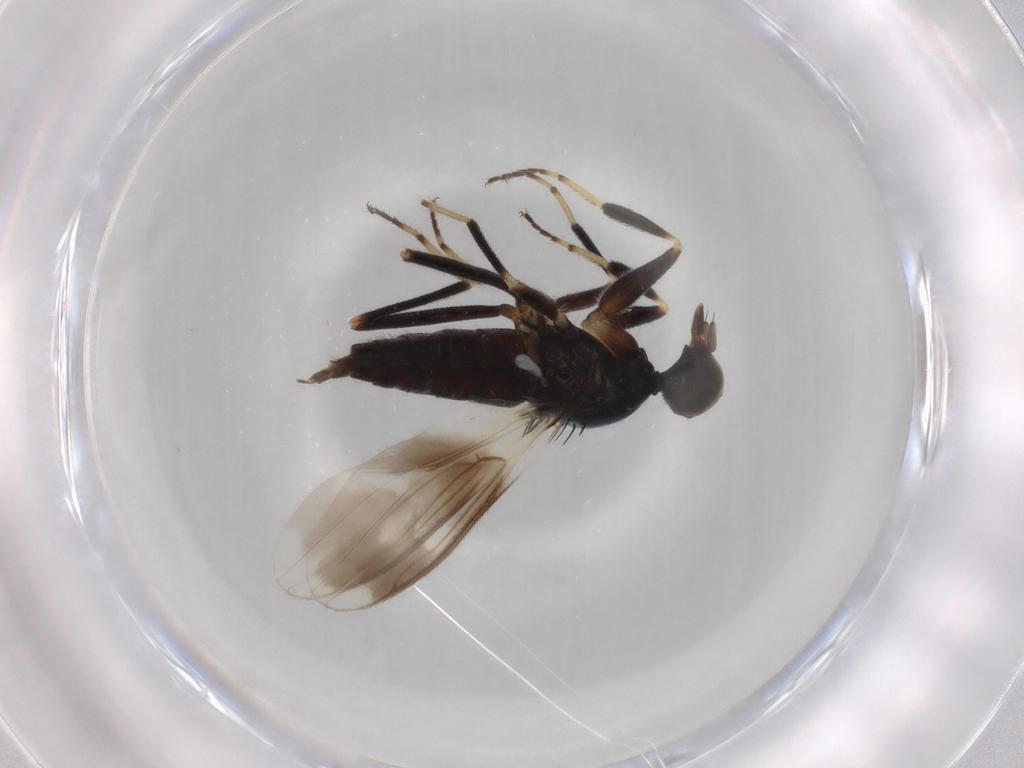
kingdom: Animalia
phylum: Arthropoda
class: Insecta
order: Diptera
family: Hybotidae
